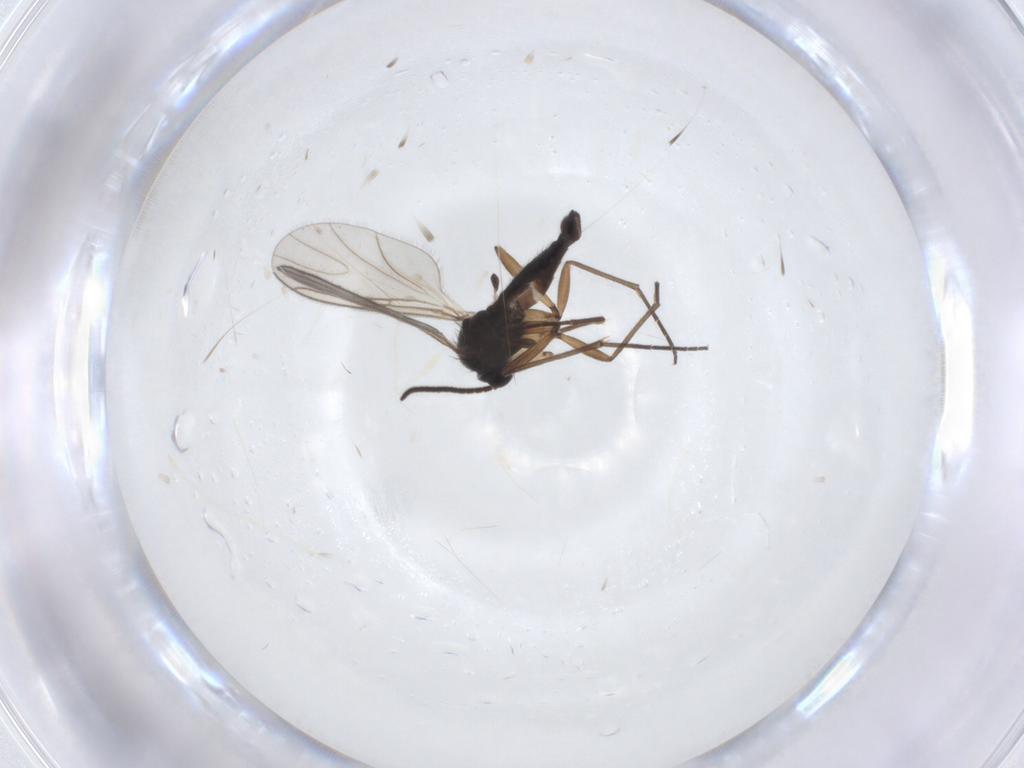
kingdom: Animalia
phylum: Arthropoda
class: Insecta
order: Diptera
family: Sciaridae
